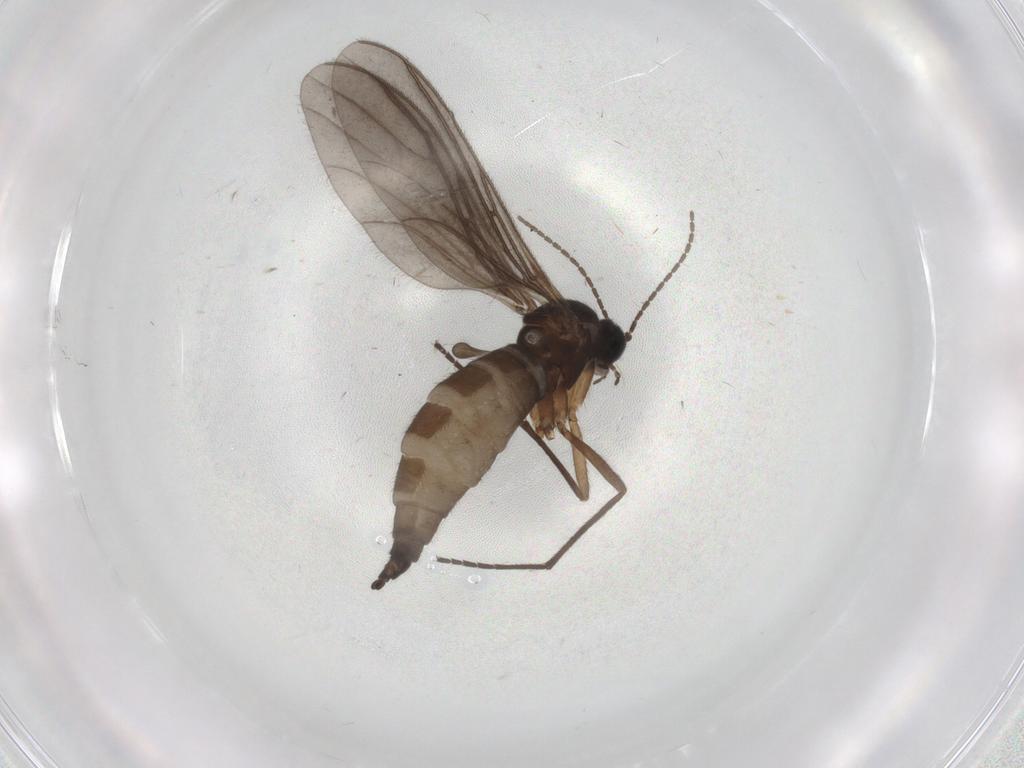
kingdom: Animalia
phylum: Arthropoda
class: Insecta
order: Diptera
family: Sciaridae
